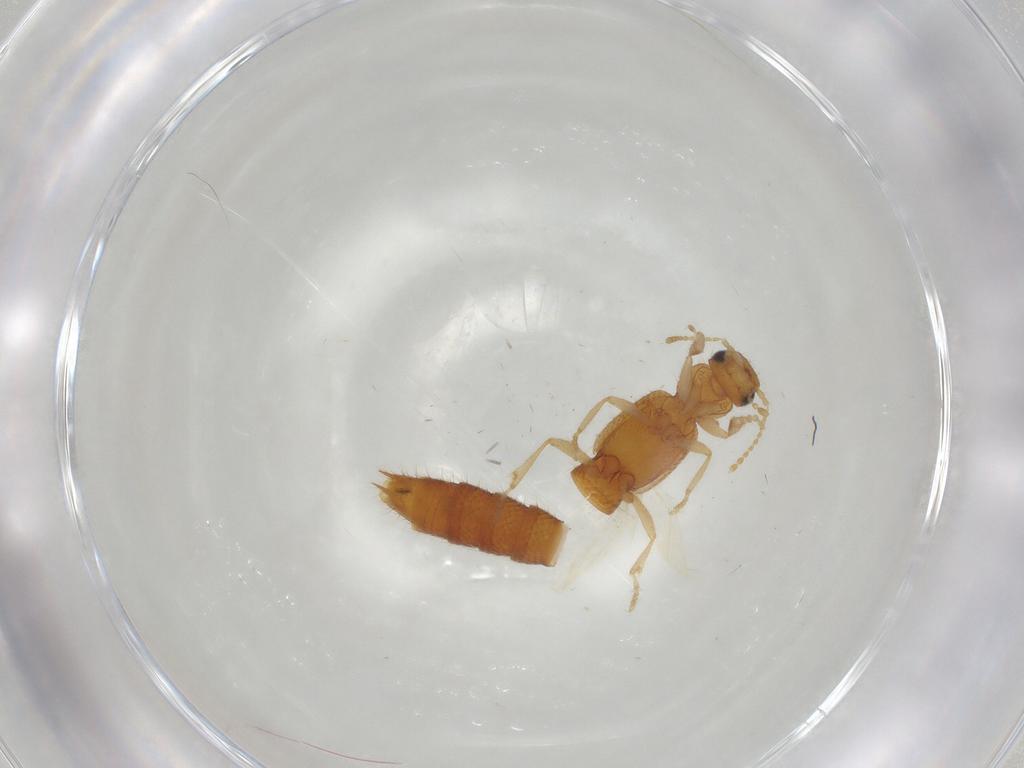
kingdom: Animalia
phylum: Arthropoda
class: Insecta
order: Coleoptera
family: Staphylinidae
